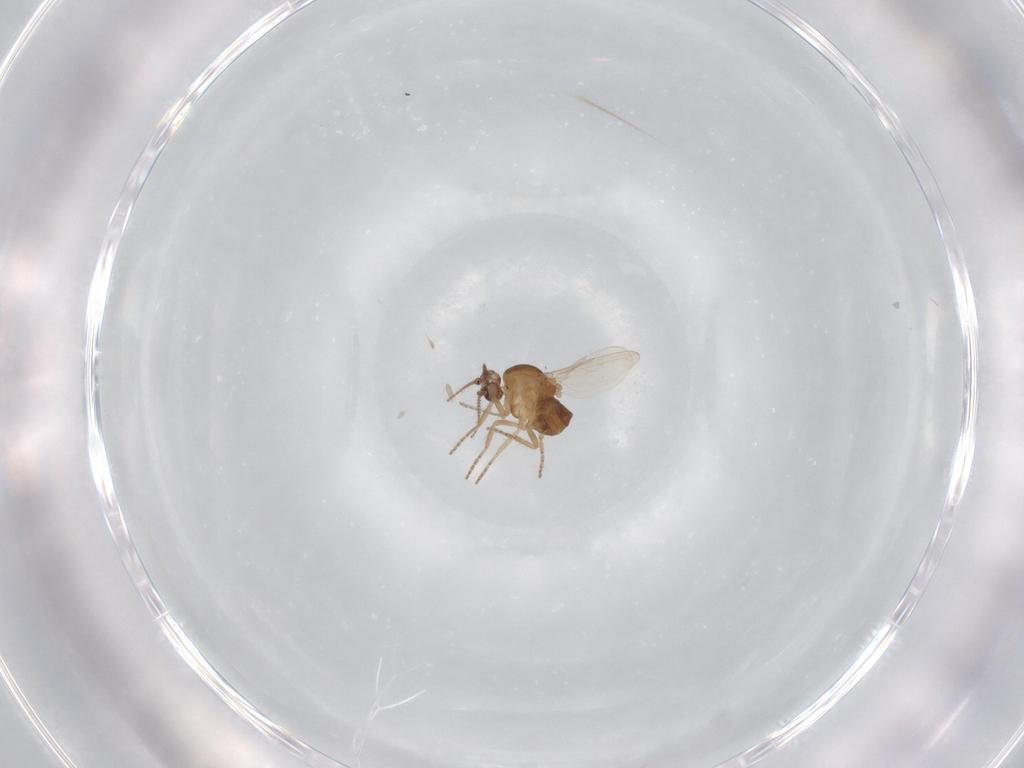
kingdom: Animalia
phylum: Arthropoda
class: Insecta
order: Diptera
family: Ceratopogonidae
